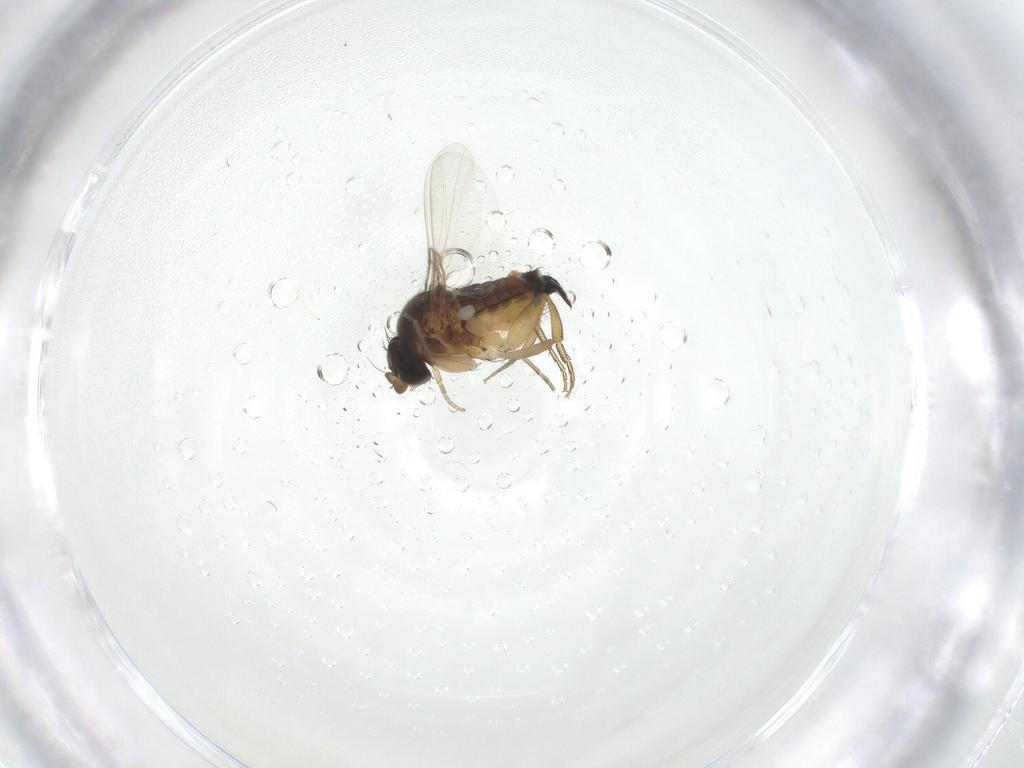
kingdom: Animalia
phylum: Arthropoda
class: Insecta
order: Diptera
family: Phoridae
